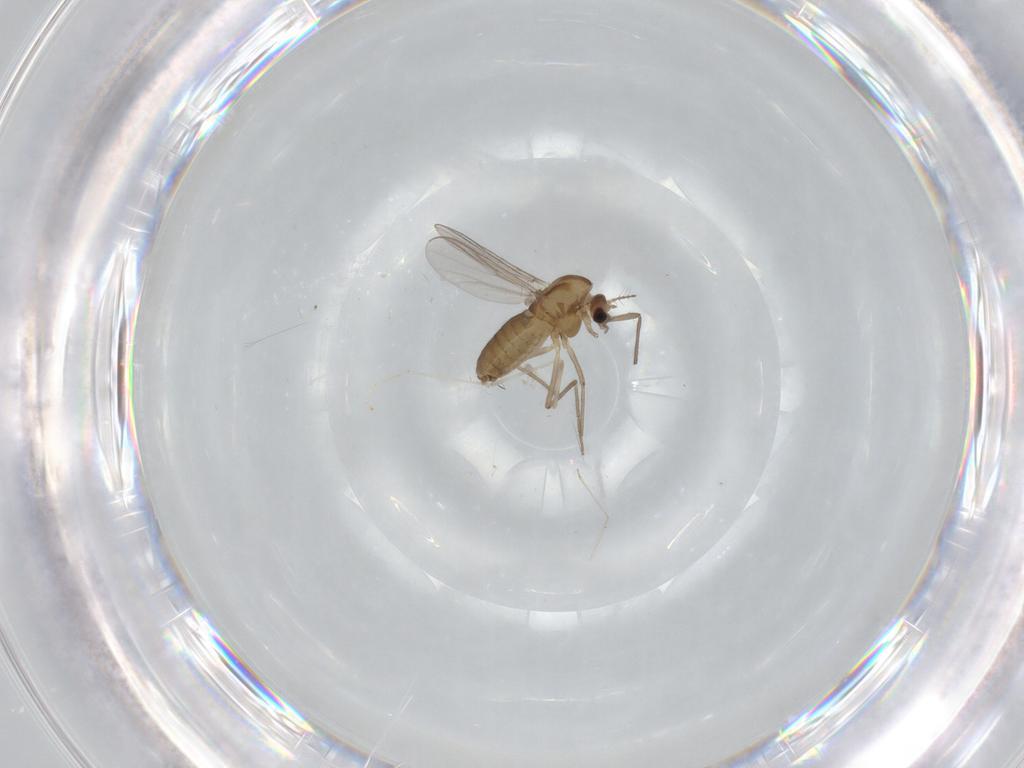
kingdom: Animalia
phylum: Arthropoda
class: Insecta
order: Diptera
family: Chironomidae
